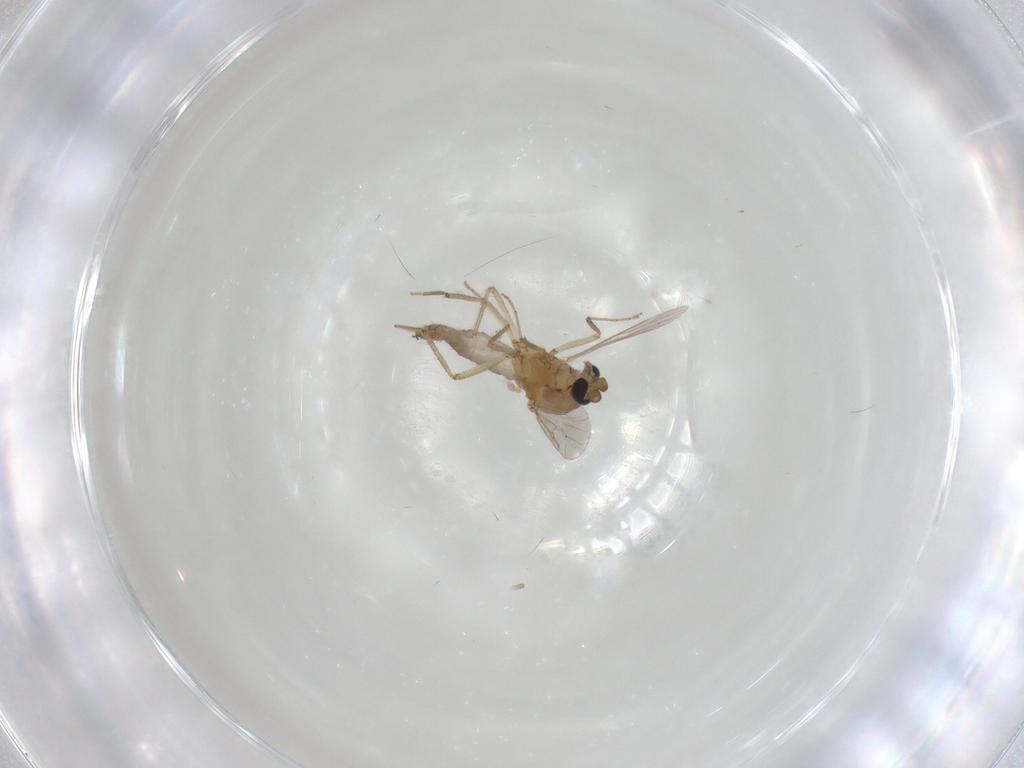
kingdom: Animalia
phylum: Arthropoda
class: Insecta
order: Diptera
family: Ceratopogonidae
